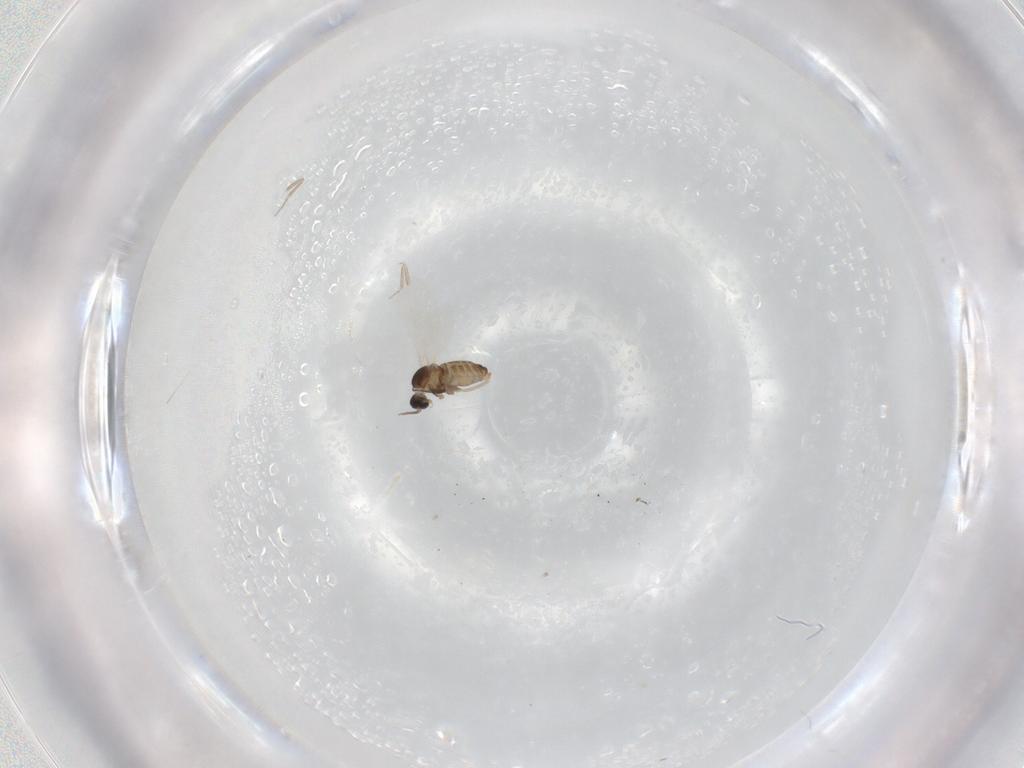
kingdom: Animalia
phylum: Arthropoda
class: Insecta
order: Diptera
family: Cecidomyiidae
